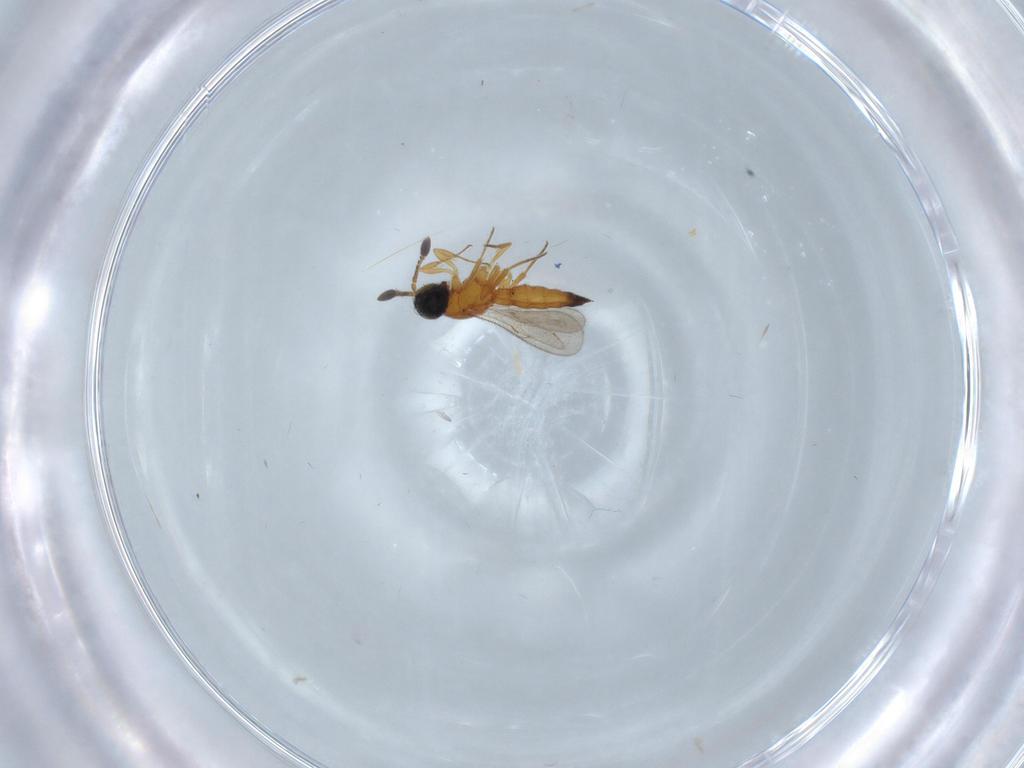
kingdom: Animalia
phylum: Arthropoda
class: Insecta
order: Hymenoptera
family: Scelionidae
